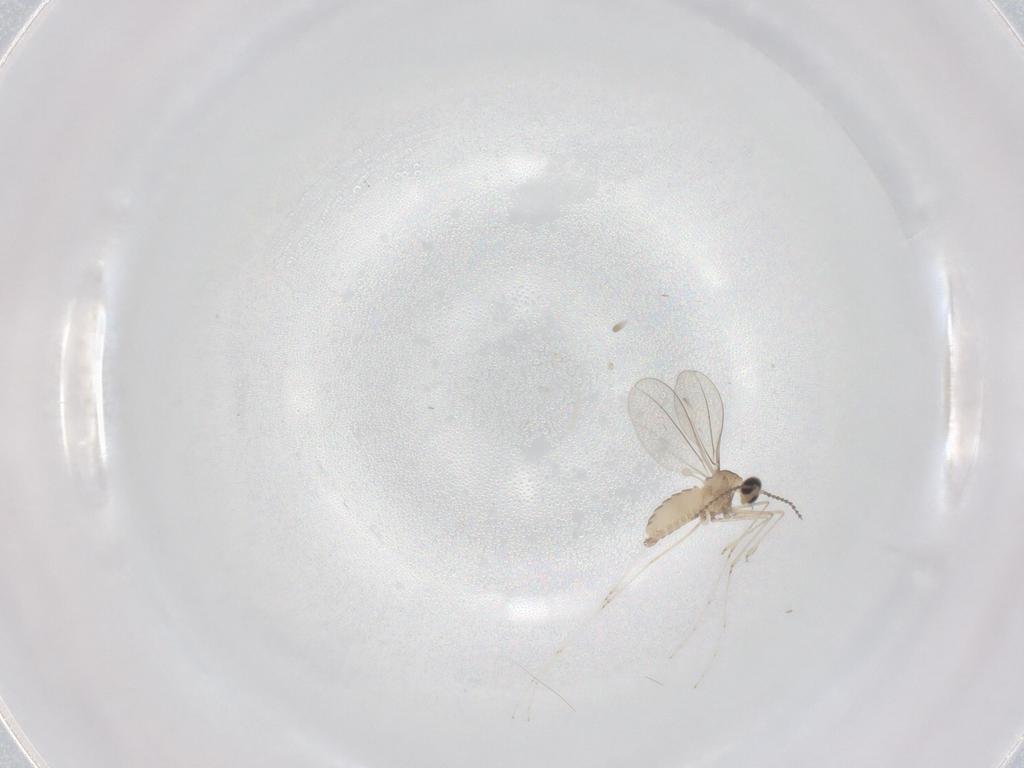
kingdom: Animalia
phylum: Arthropoda
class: Insecta
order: Diptera
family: Cecidomyiidae
